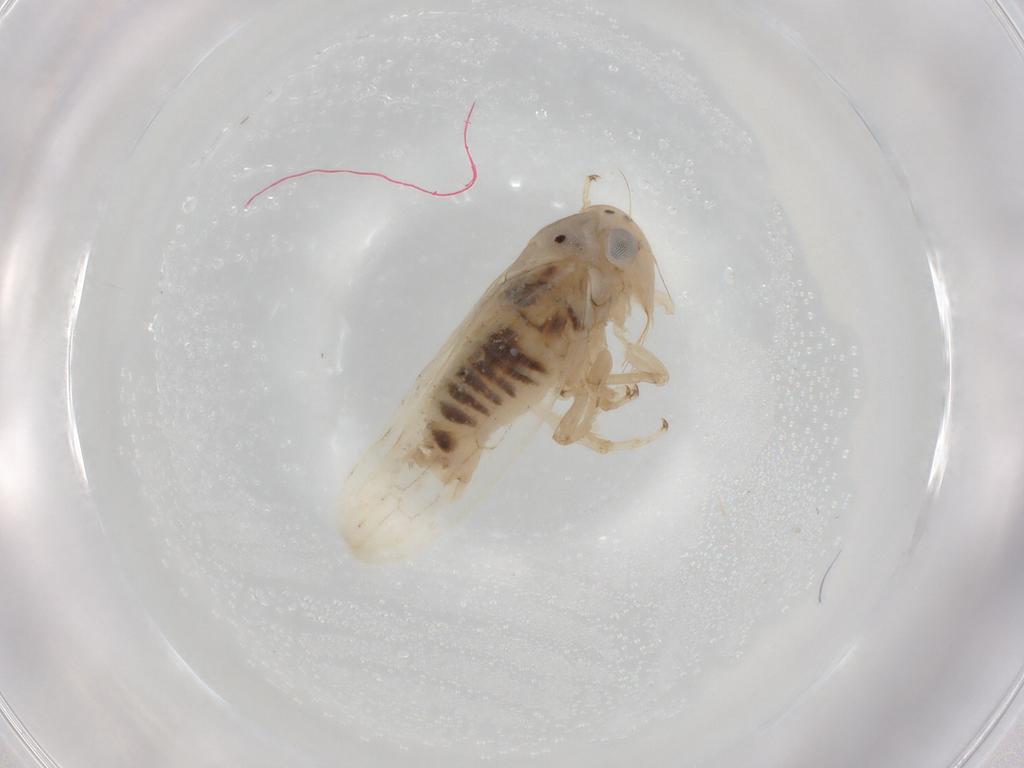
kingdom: Animalia
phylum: Arthropoda
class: Insecta
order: Hemiptera
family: Cicadellidae
